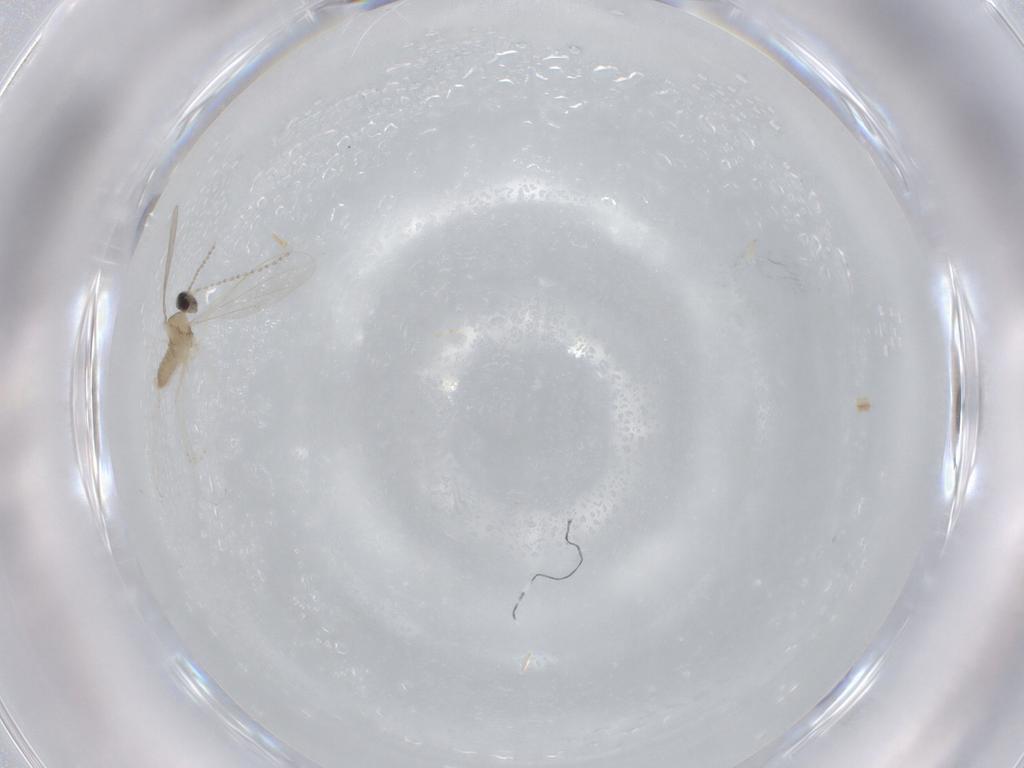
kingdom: Animalia
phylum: Arthropoda
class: Insecta
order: Diptera
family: Cecidomyiidae
